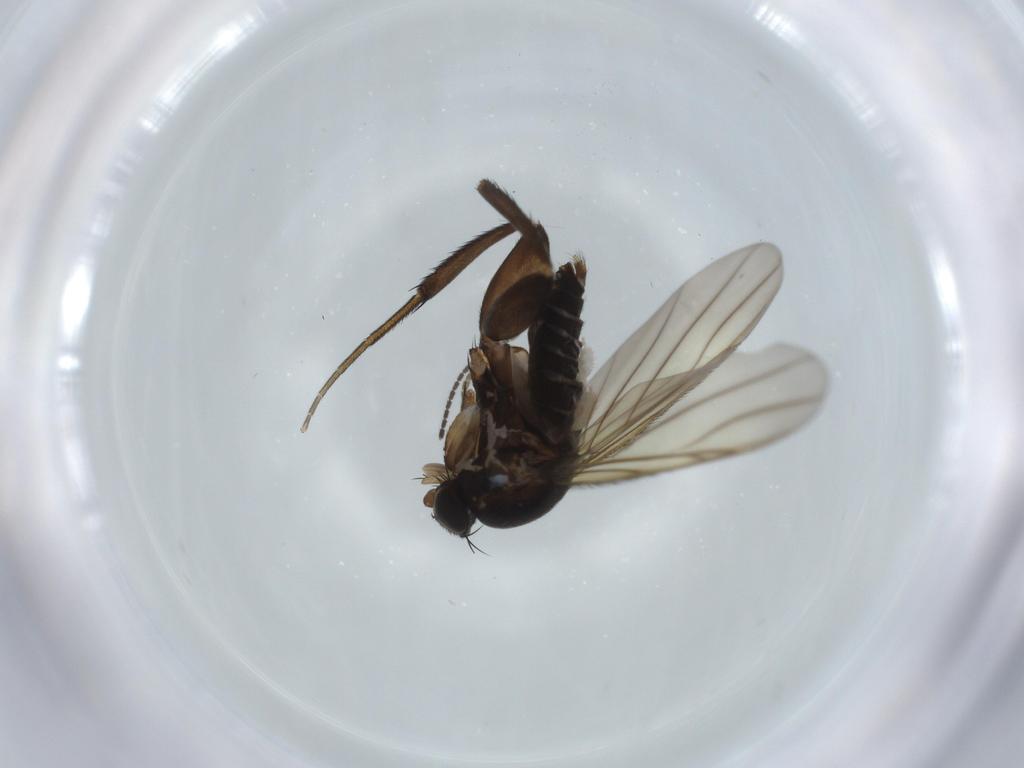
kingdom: Animalia
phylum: Arthropoda
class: Insecta
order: Diptera
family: Phoridae
